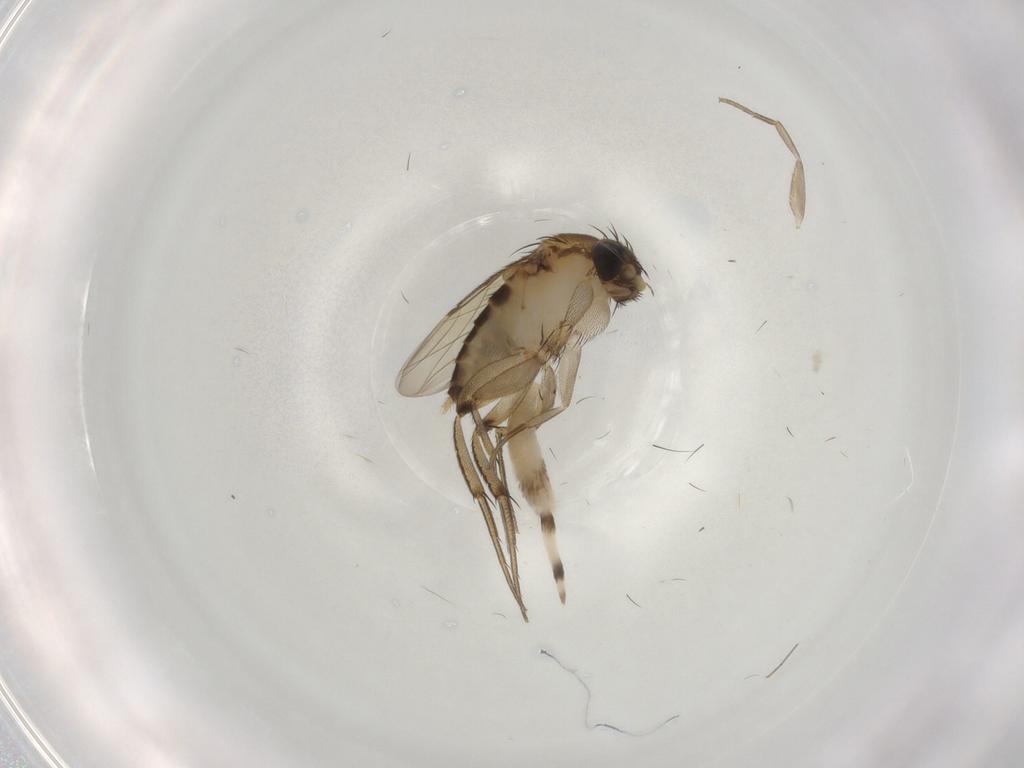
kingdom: Animalia
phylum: Arthropoda
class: Insecta
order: Diptera
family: Phoridae
